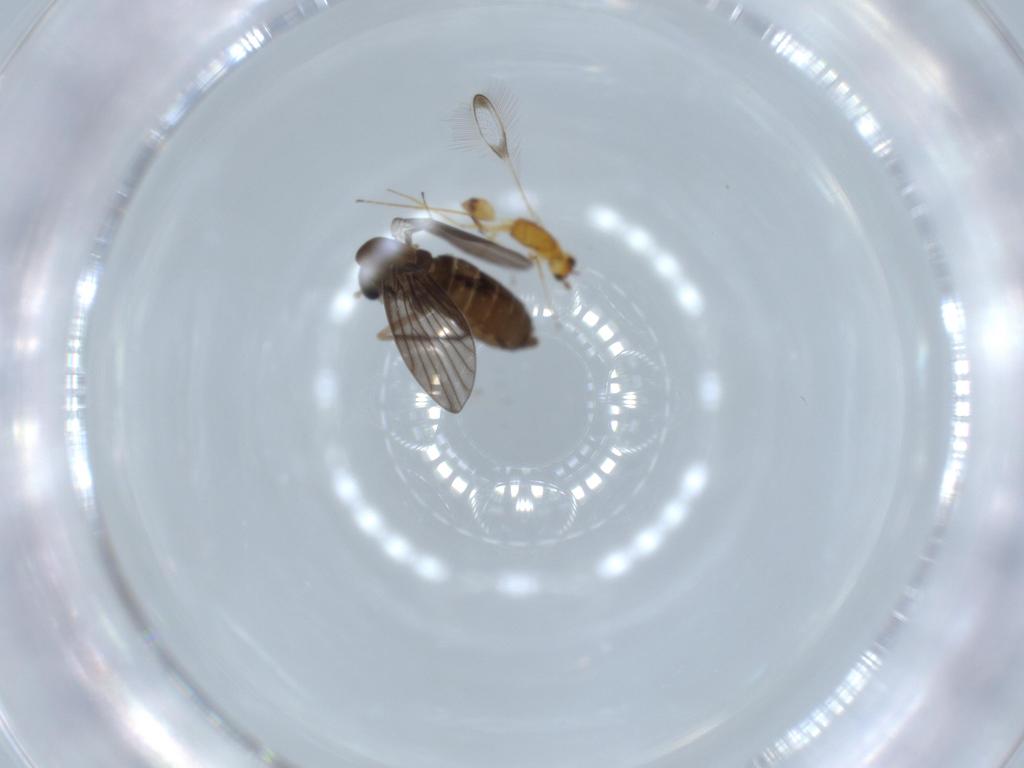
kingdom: Animalia
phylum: Arthropoda
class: Insecta
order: Diptera
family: Psychodidae
